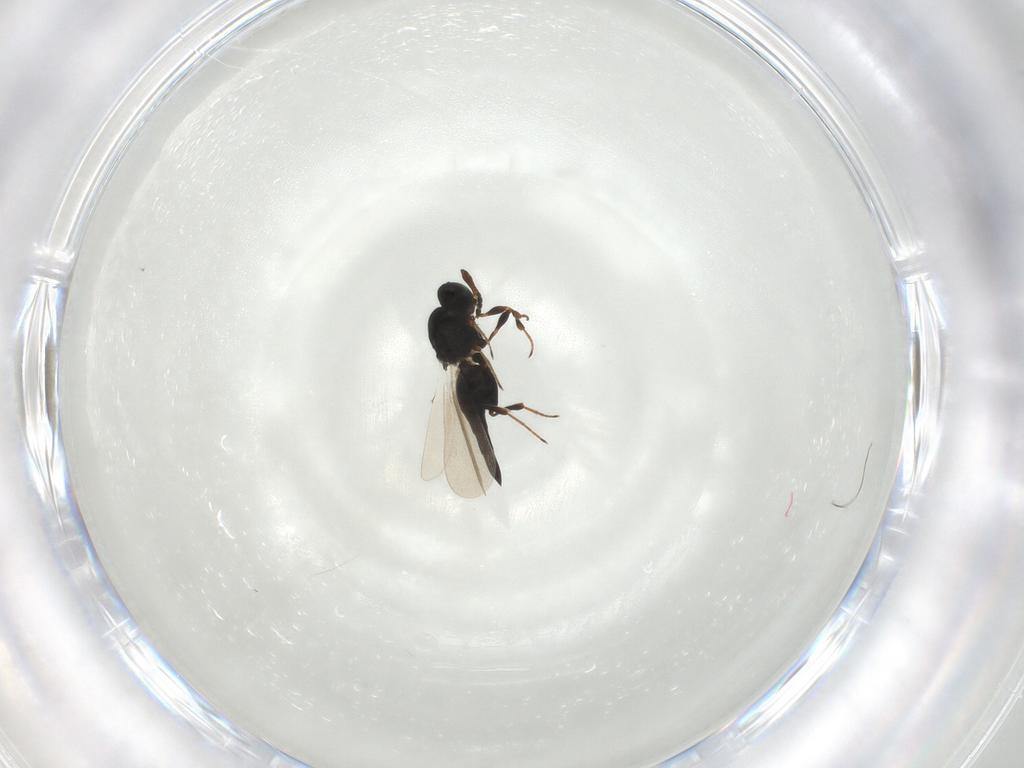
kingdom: Animalia
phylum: Arthropoda
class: Insecta
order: Hymenoptera
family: Platygastridae
